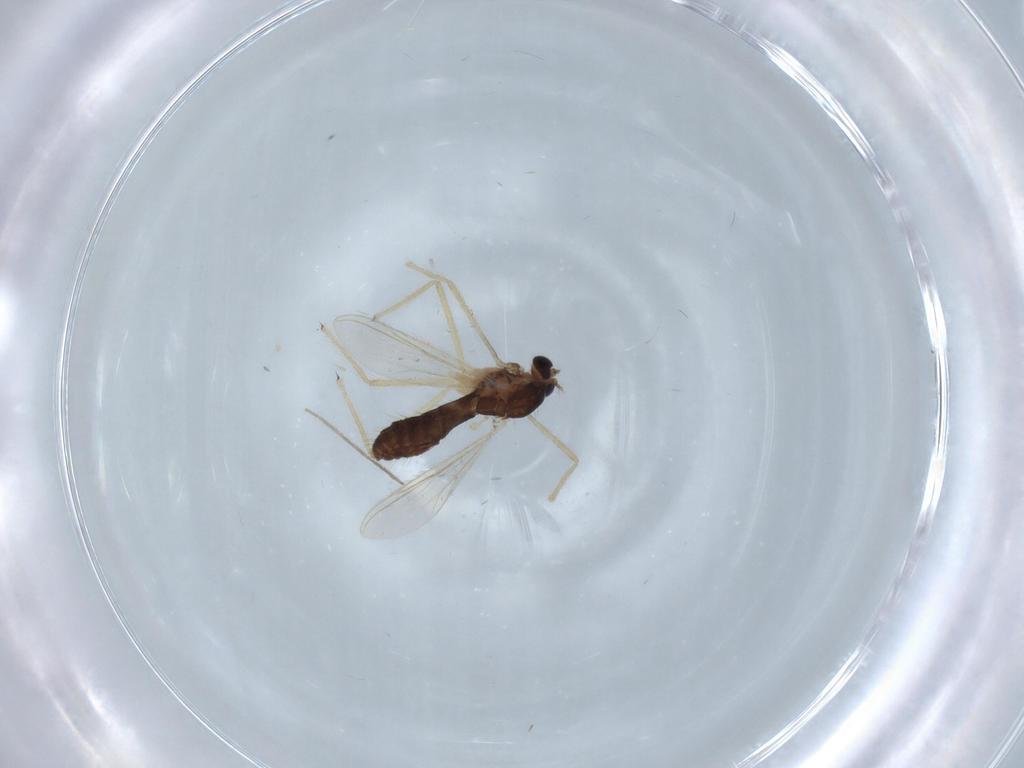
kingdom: Animalia
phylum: Arthropoda
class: Insecta
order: Diptera
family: Chironomidae
